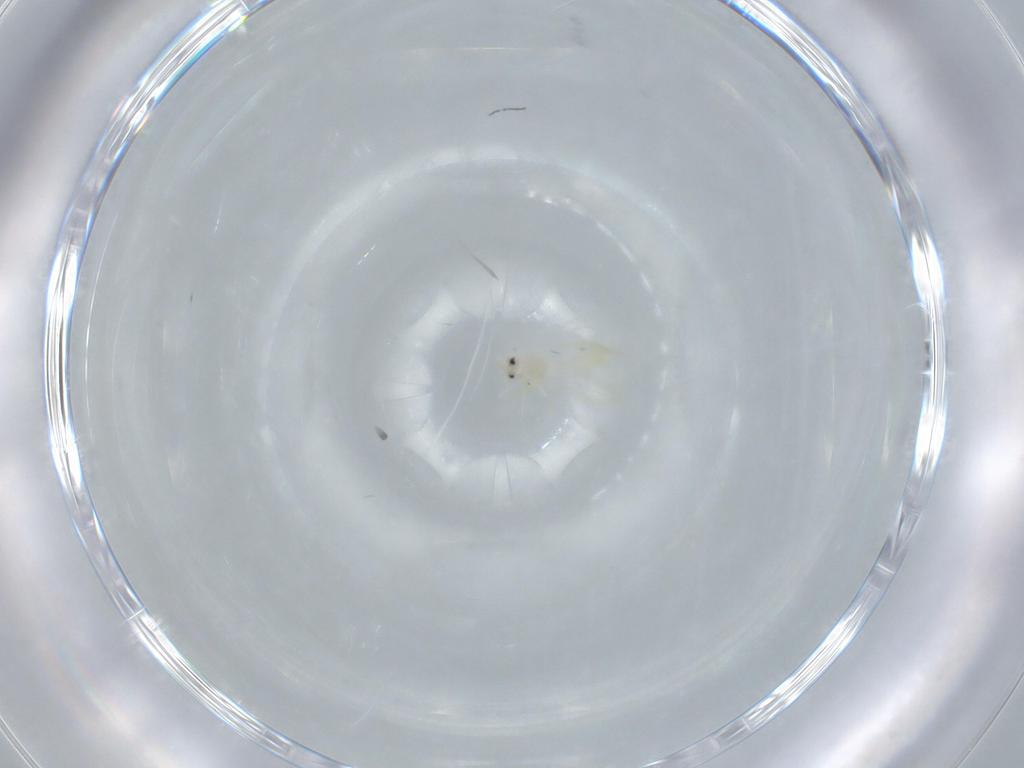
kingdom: Animalia
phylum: Arthropoda
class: Insecta
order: Hemiptera
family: Aleyrodidae
